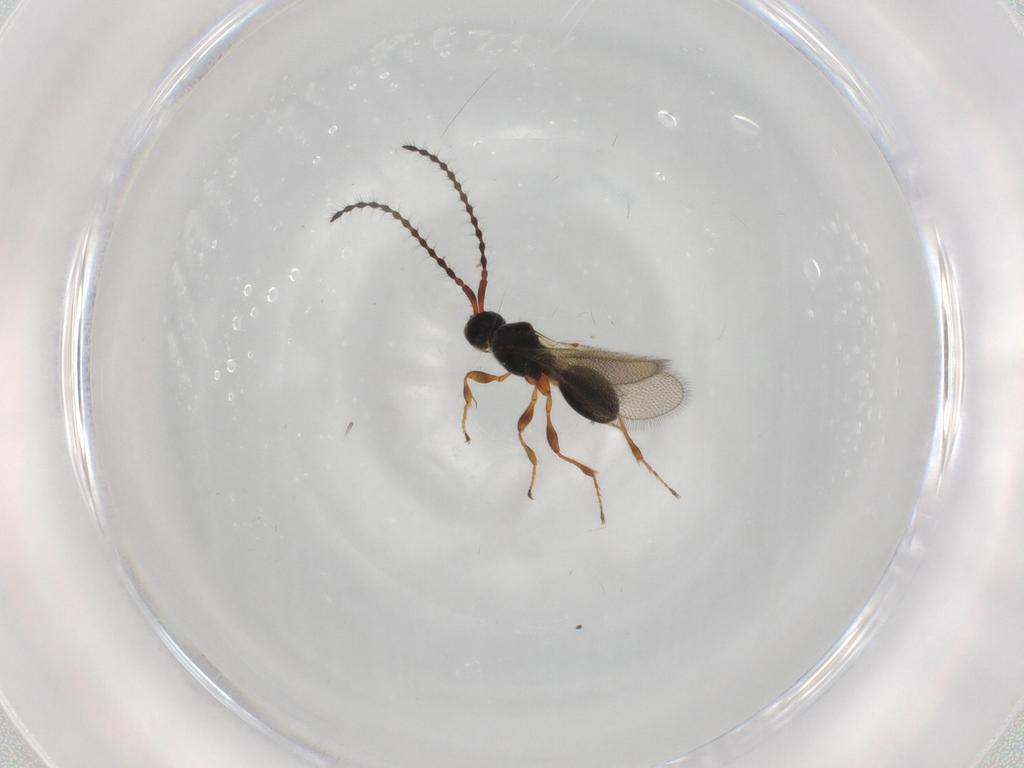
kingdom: Animalia
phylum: Arthropoda
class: Insecta
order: Hymenoptera
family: Diapriidae
